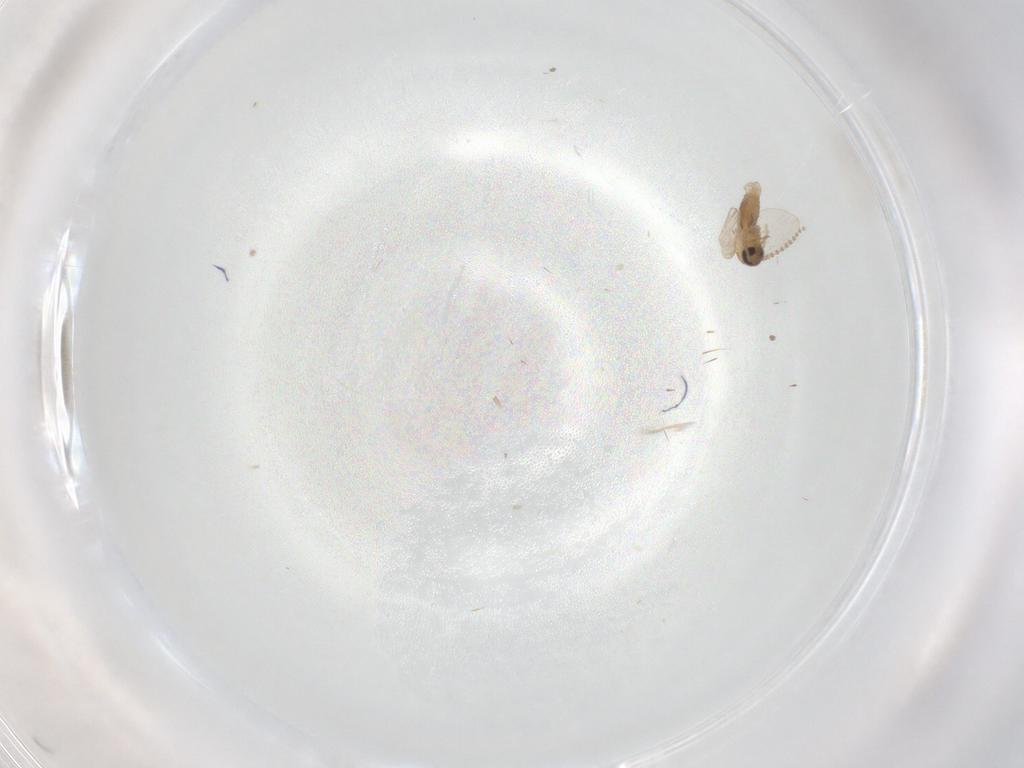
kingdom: Animalia
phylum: Arthropoda
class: Insecta
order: Diptera
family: Psychodidae
